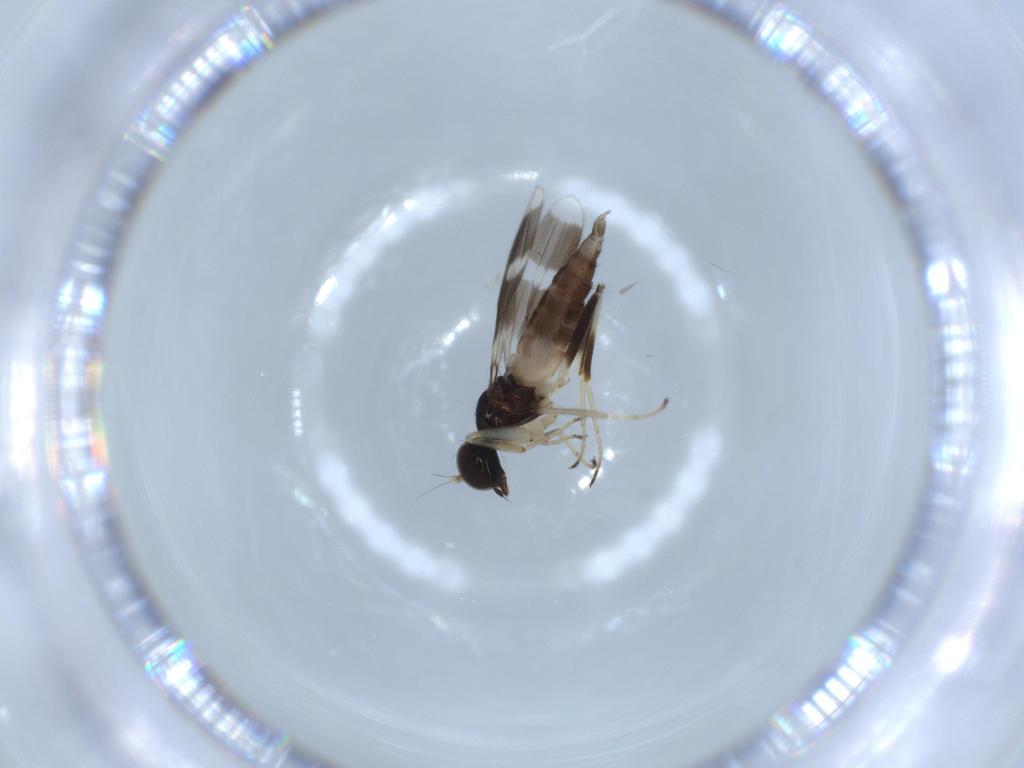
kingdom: Animalia
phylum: Arthropoda
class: Insecta
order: Diptera
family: Hybotidae
